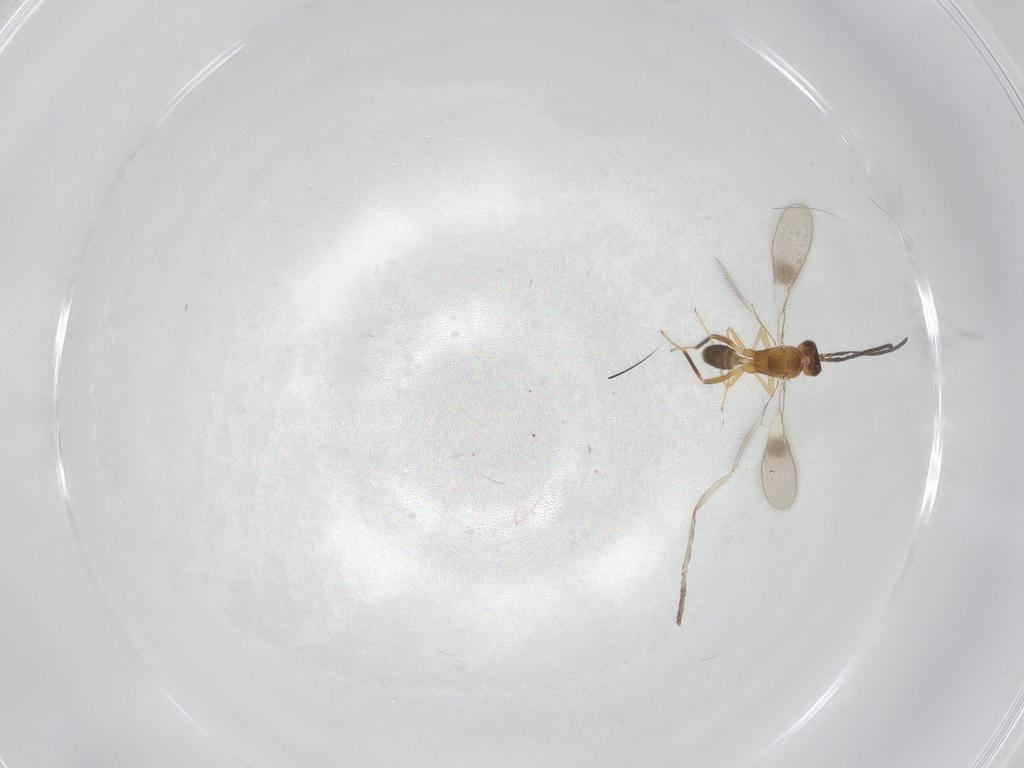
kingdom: Animalia
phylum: Arthropoda
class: Insecta
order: Hymenoptera
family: Mymaridae
